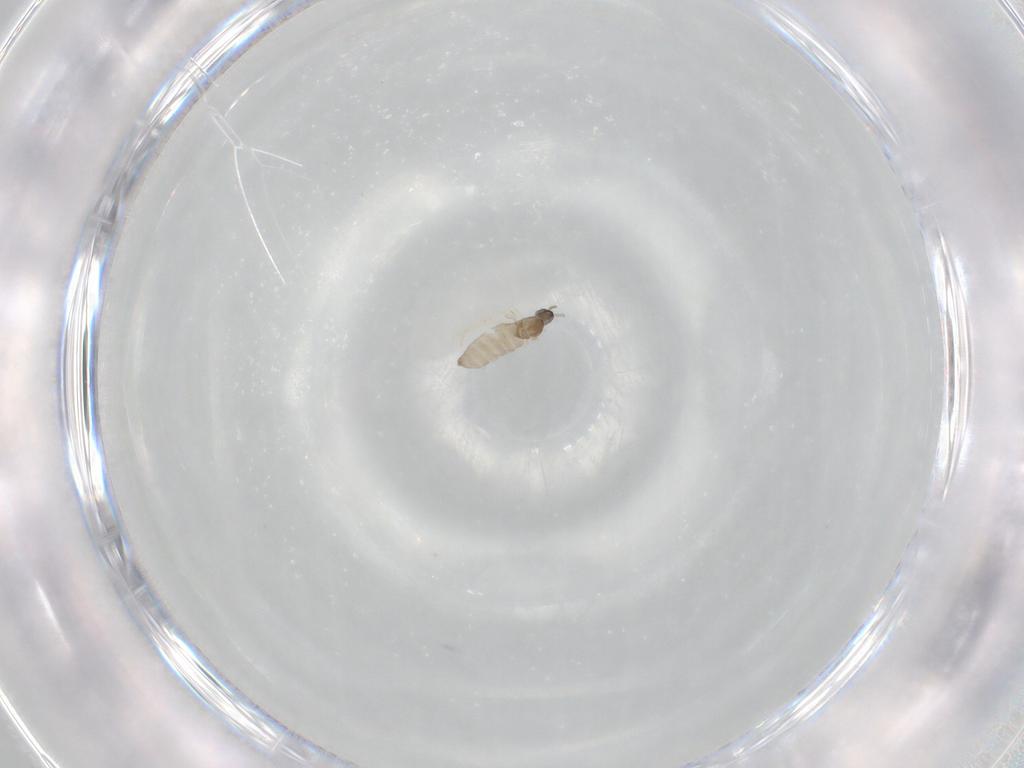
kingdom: Animalia
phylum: Arthropoda
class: Insecta
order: Diptera
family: Cecidomyiidae
